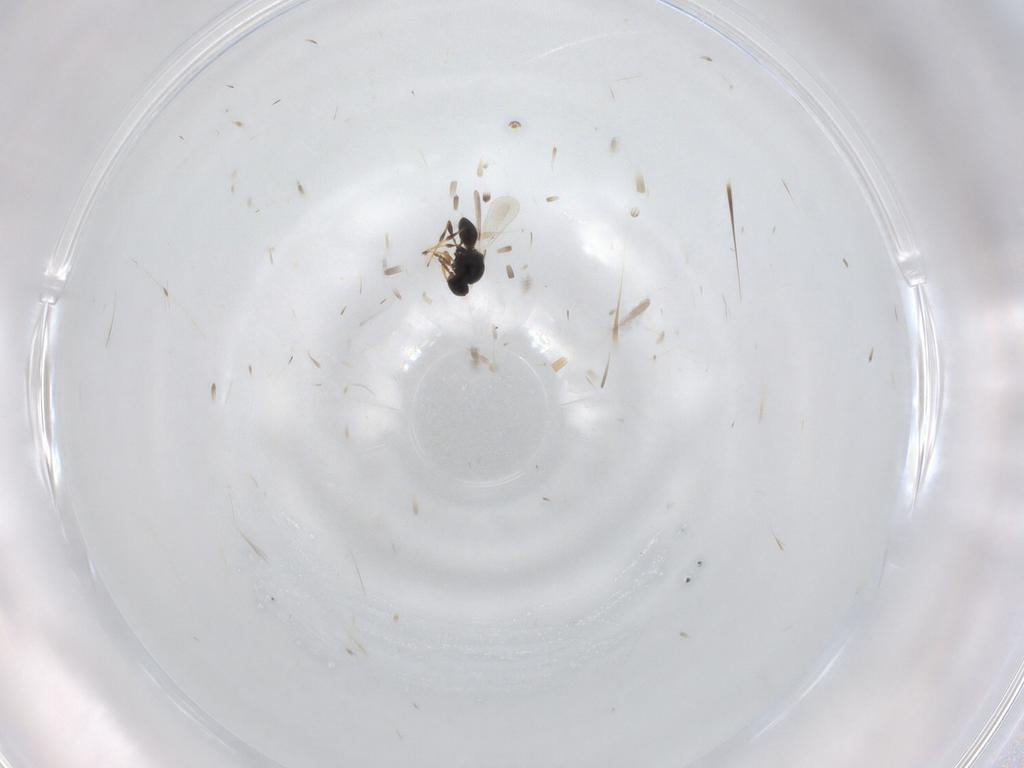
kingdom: Animalia
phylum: Arthropoda
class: Insecta
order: Hymenoptera
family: Platygastridae
